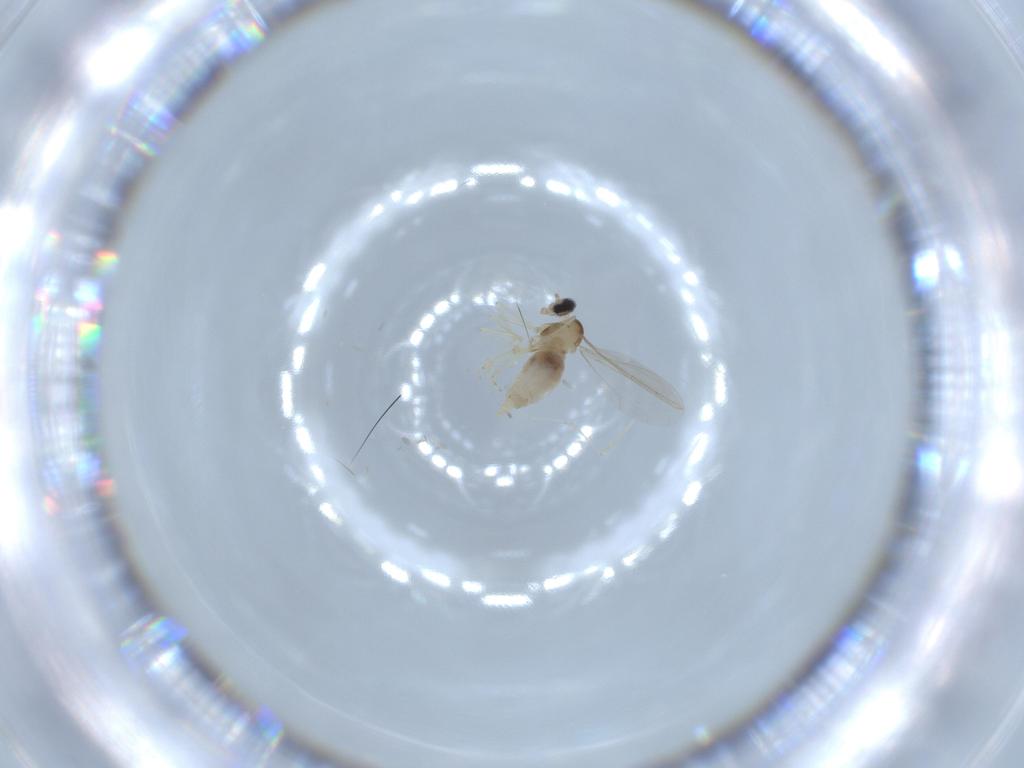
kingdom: Animalia
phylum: Arthropoda
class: Insecta
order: Diptera
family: Cecidomyiidae
